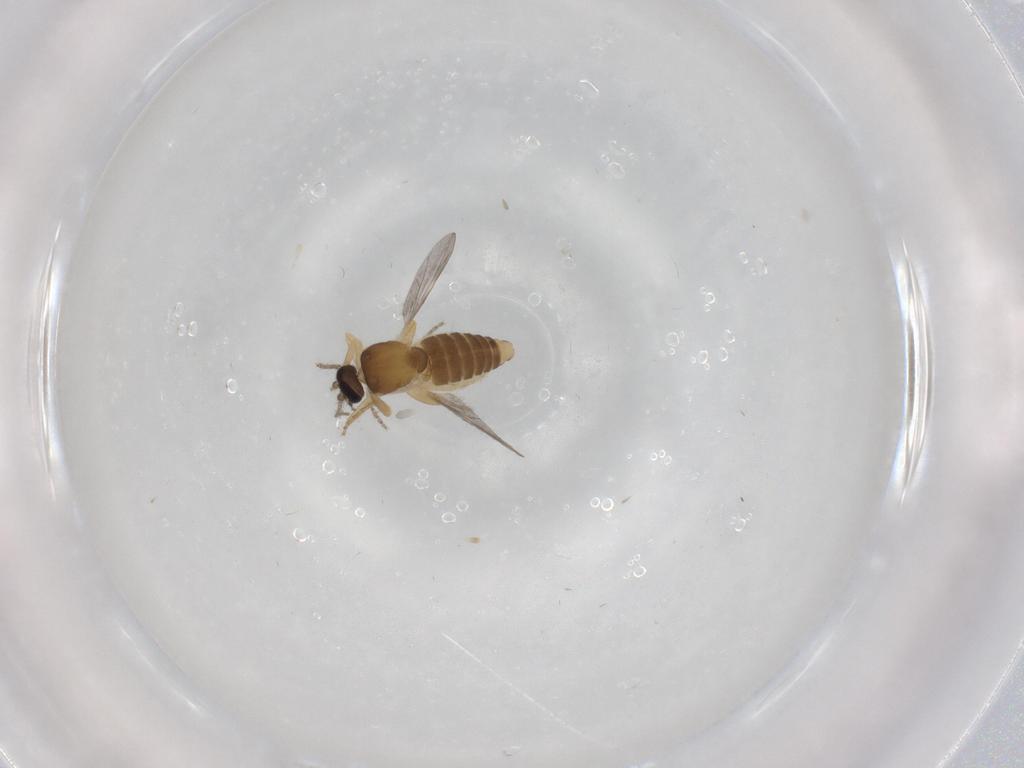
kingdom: Animalia
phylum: Arthropoda
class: Insecta
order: Diptera
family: Ceratopogonidae
